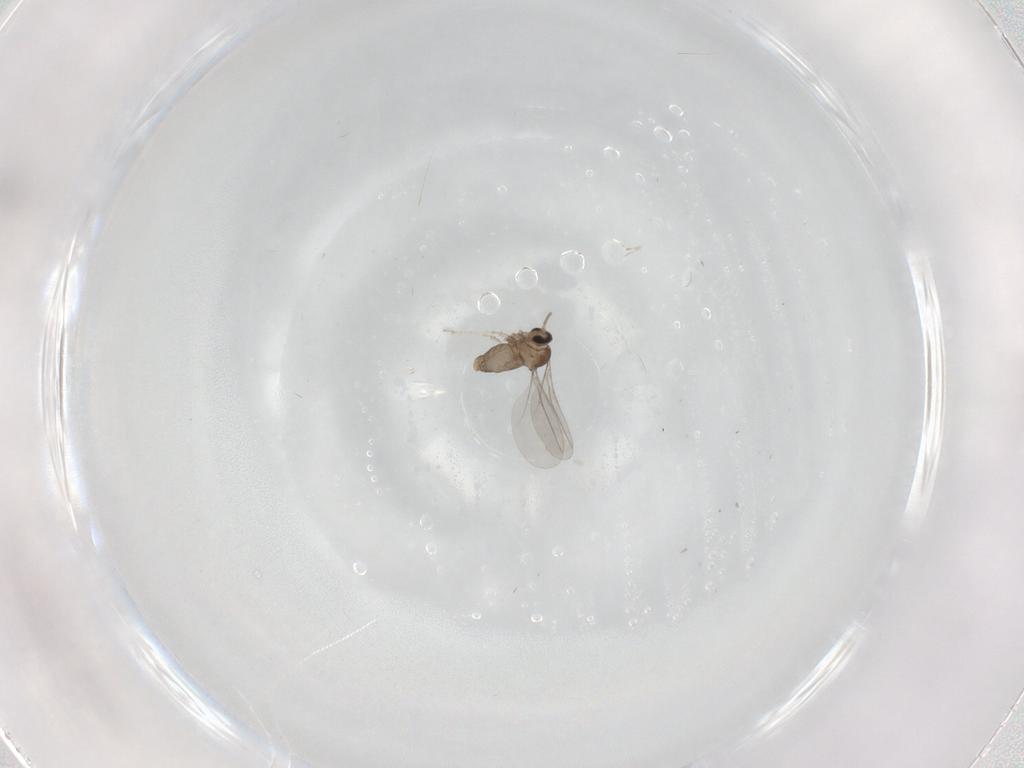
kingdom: Animalia
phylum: Arthropoda
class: Insecta
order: Diptera
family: Cecidomyiidae
